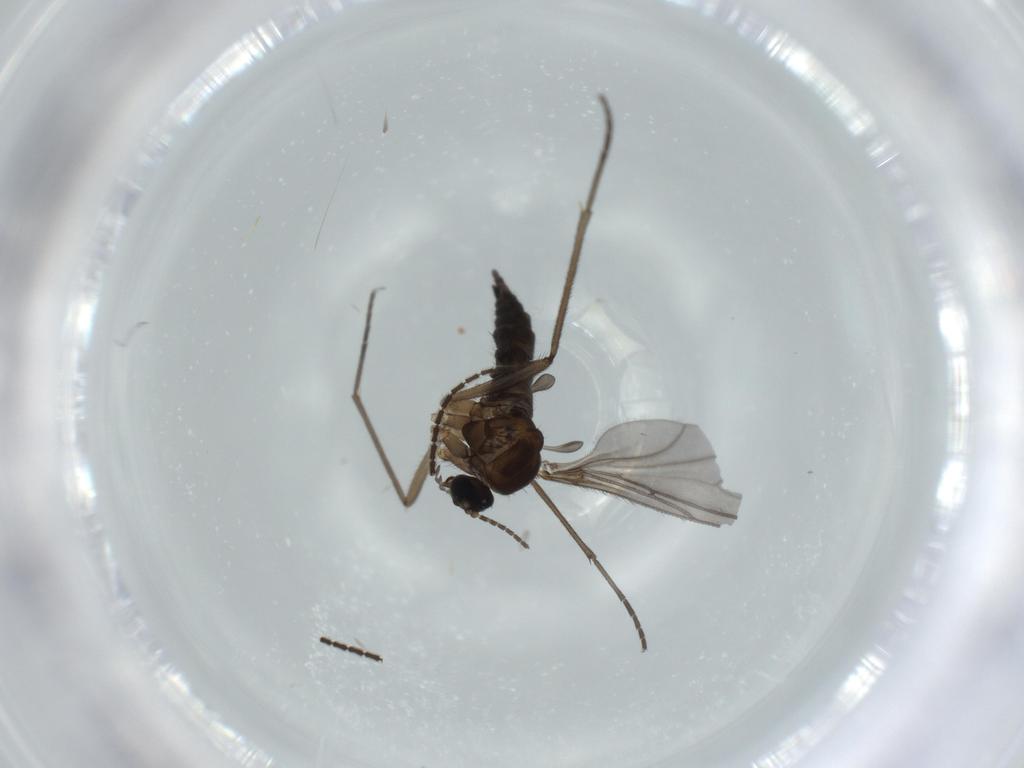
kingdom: Animalia
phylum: Arthropoda
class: Insecta
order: Diptera
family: Sciaridae
